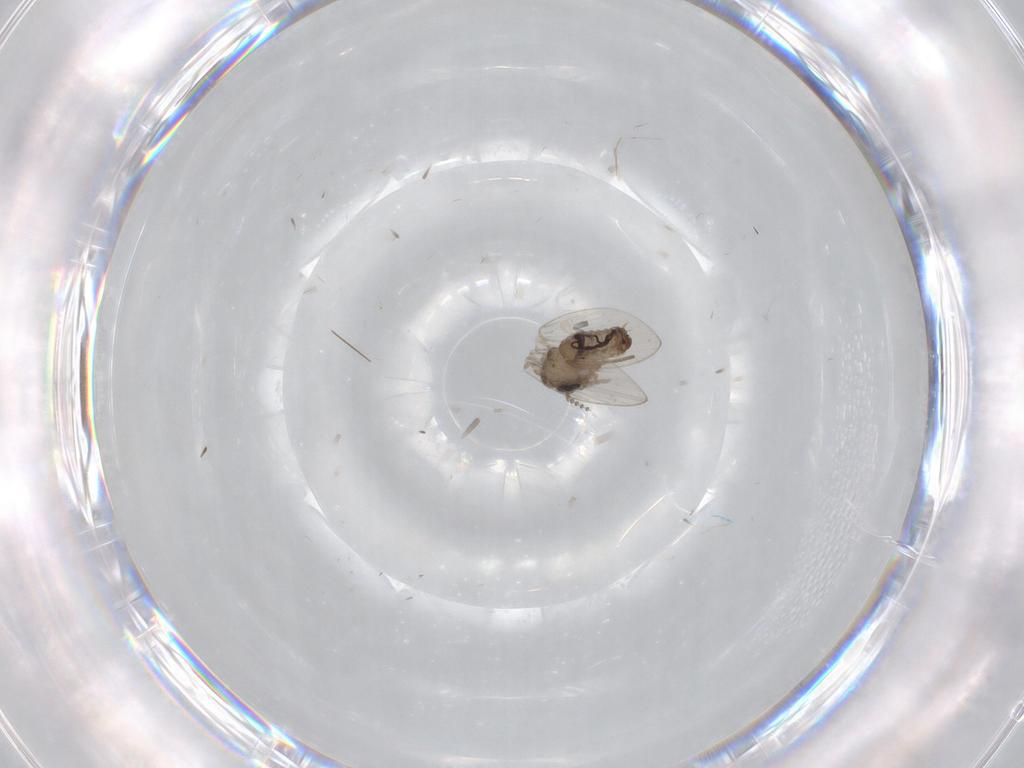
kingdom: Animalia
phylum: Arthropoda
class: Insecta
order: Diptera
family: Psychodidae
